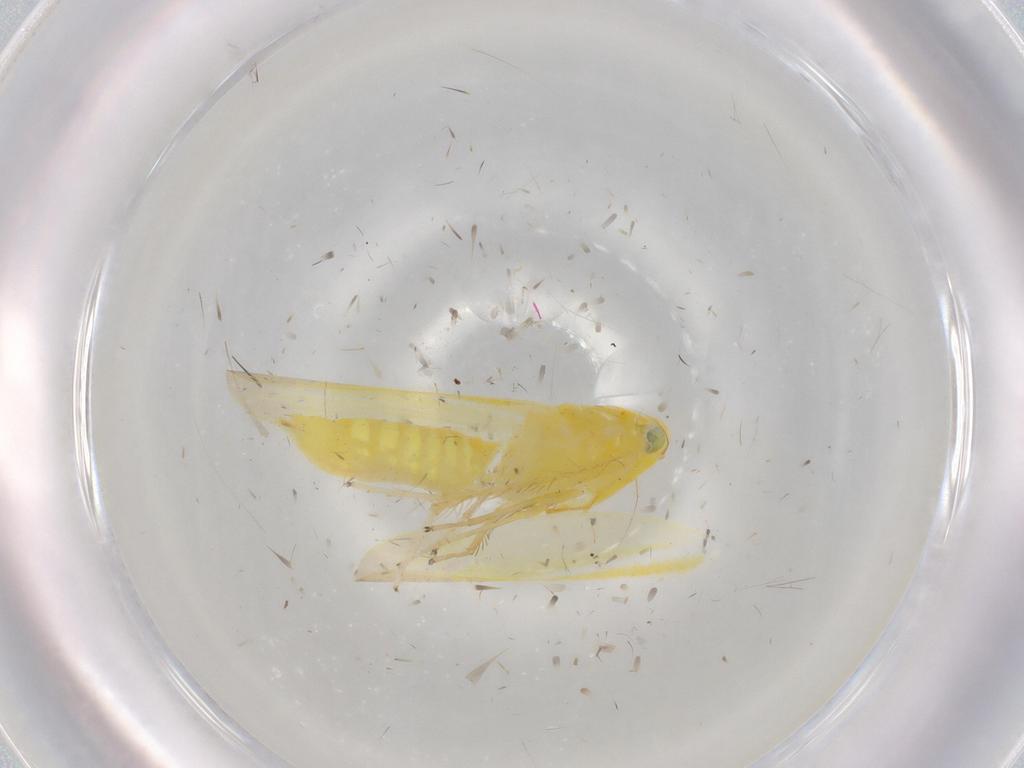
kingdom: Animalia
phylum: Arthropoda
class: Insecta
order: Hemiptera
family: Cicadellidae
